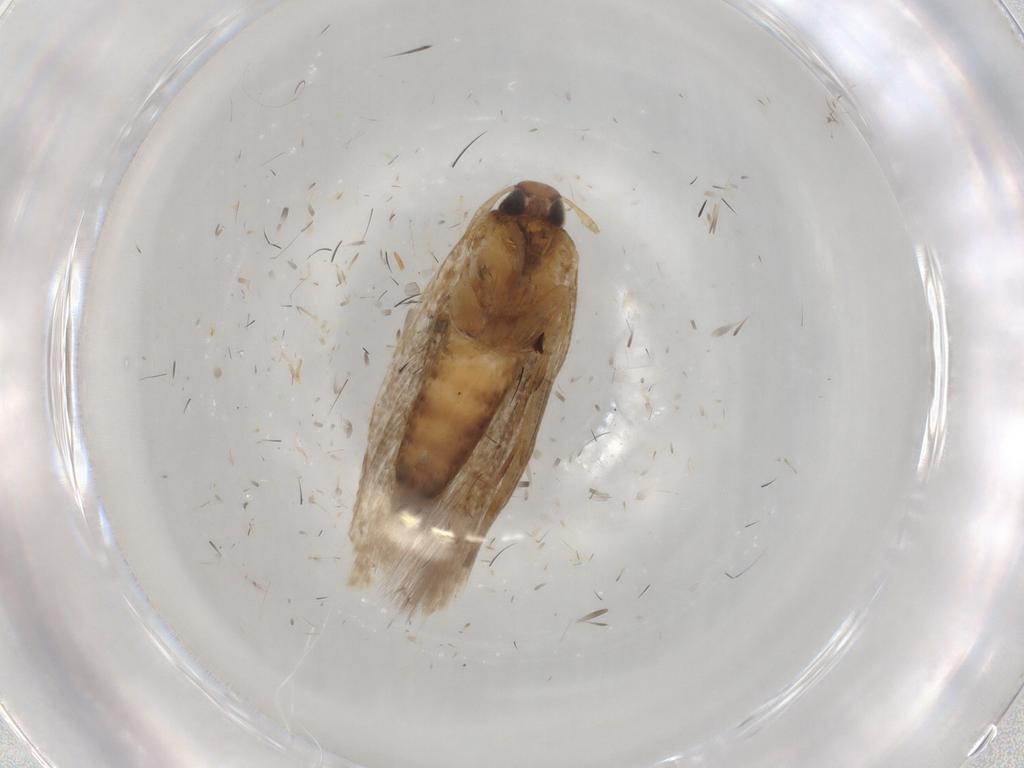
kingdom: Animalia
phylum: Arthropoda
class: Insecta
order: Lepidoptera
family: Cosmopterigidae
